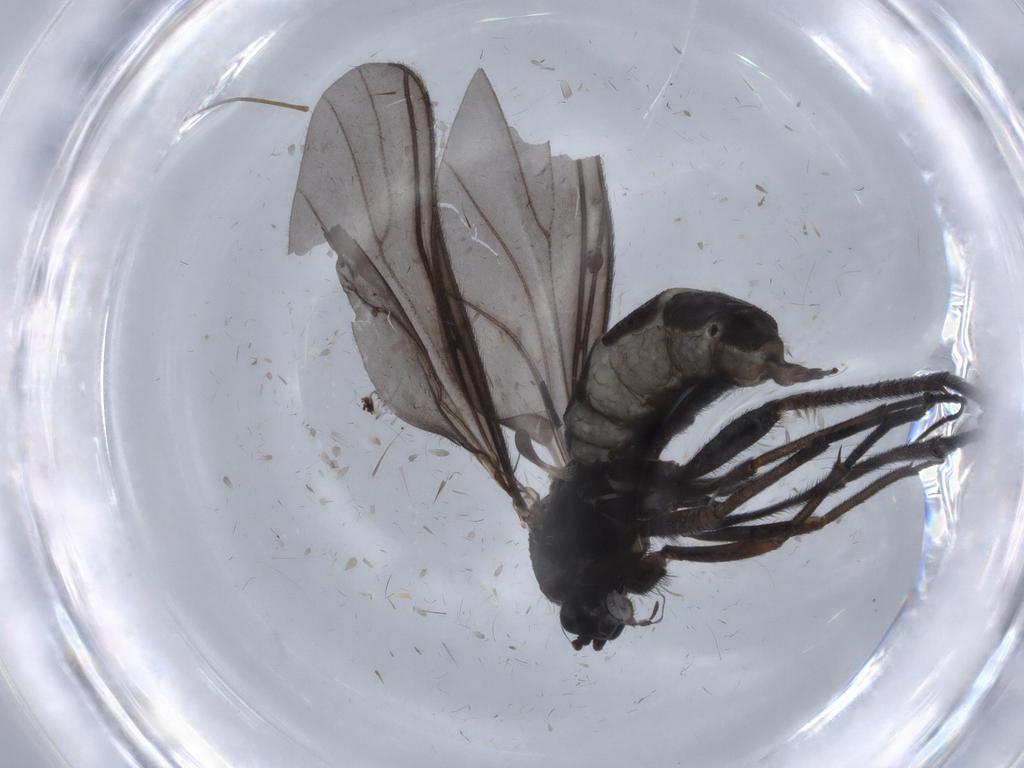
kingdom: Animalia
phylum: Arthropoda
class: Insecta
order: Diptera
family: Sciaridae
